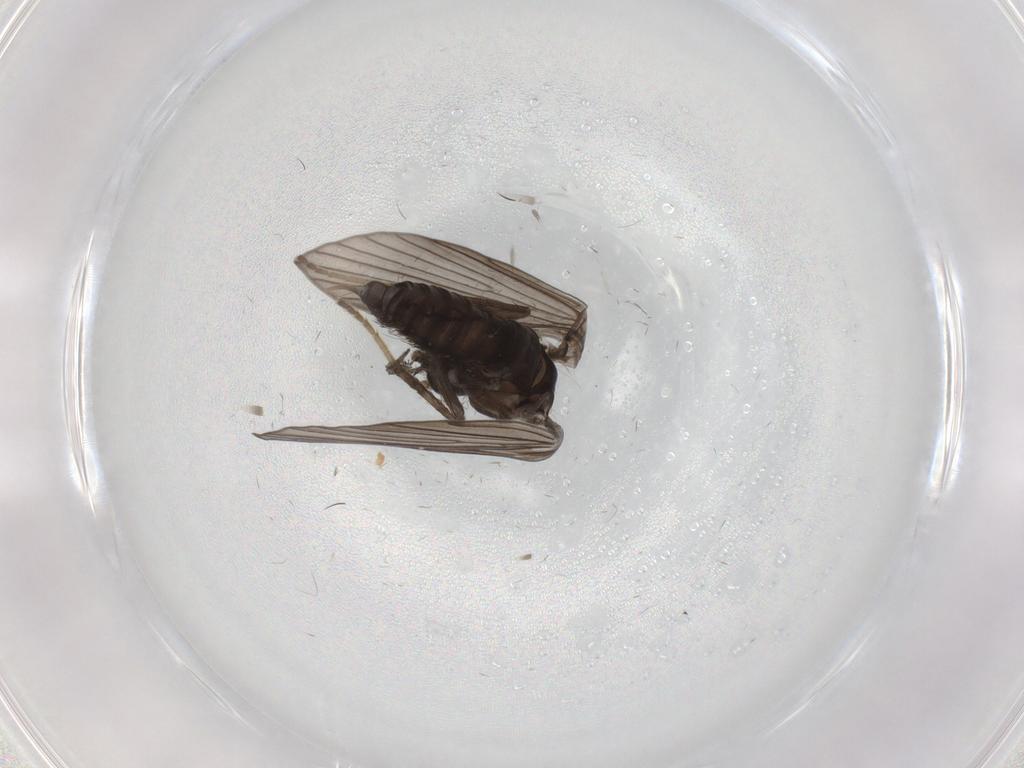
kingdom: Animalia
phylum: Arthropoda
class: Insecta
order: Diptera
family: Psychodidae
